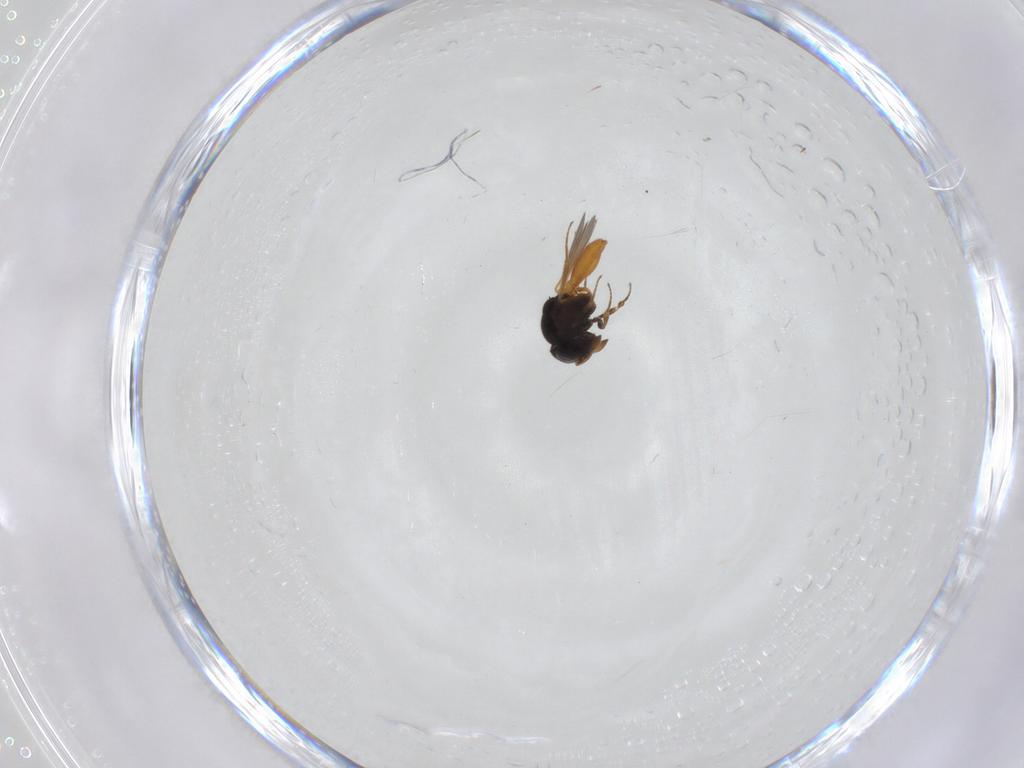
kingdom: Animalia
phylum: Arthropoda
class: Insecta
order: Hymenoptera
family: Scelionidae
